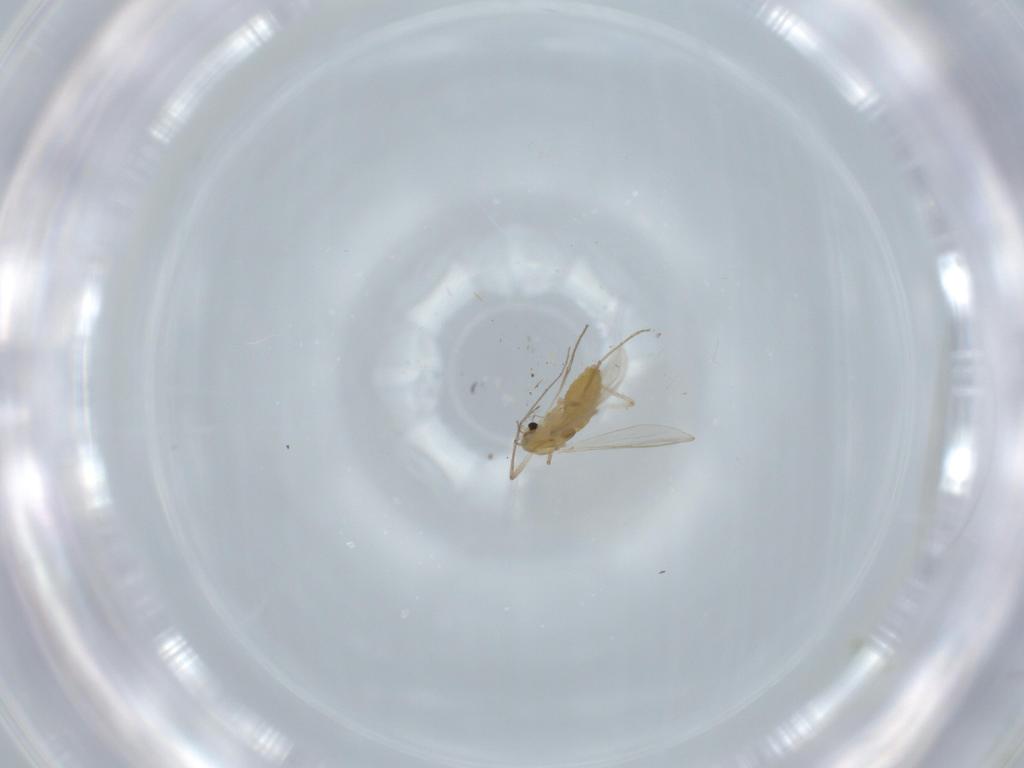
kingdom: Animalia
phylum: Arthropoda
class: Insecta
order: Diptera
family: Chironomidae
